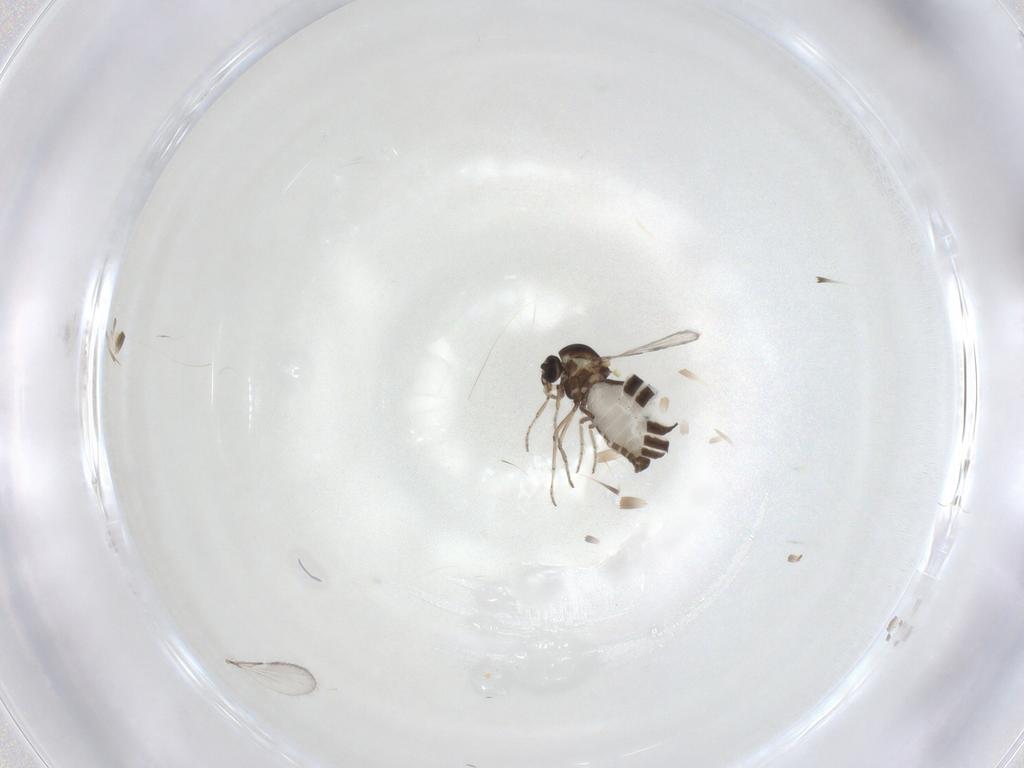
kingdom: Animalia
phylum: Arthropoda
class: Insecta
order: Diptera
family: Ceratopogonidae
